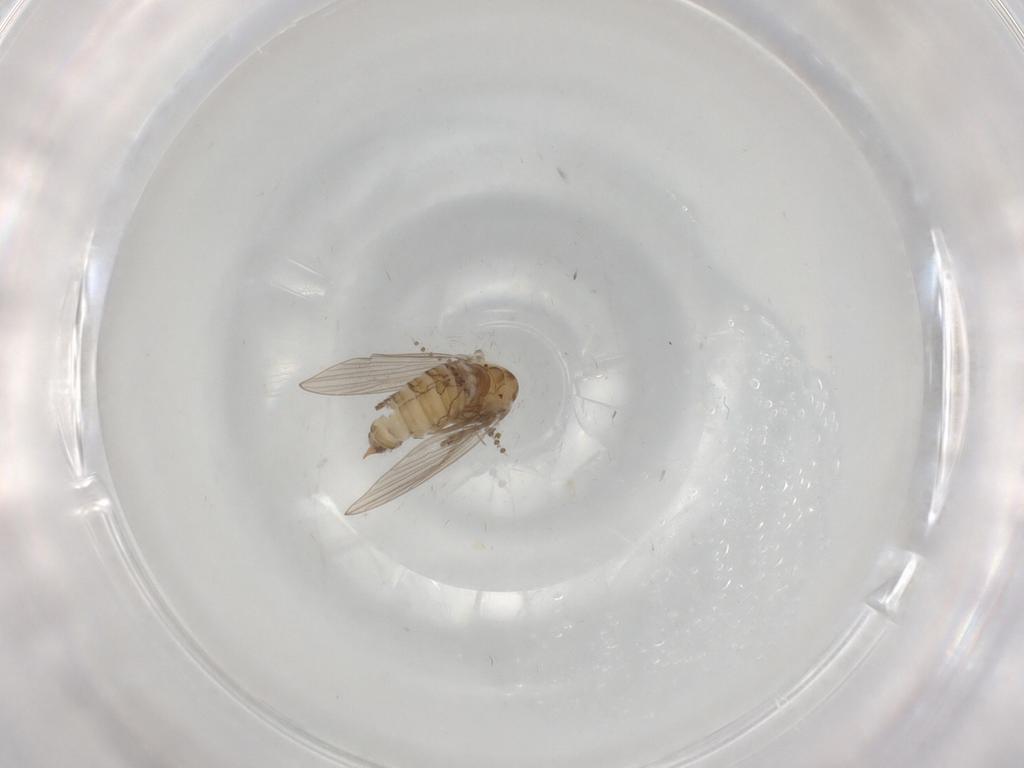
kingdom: Animalia
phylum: Arthropoda
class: Insecta
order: Diptera
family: Psychodidae
